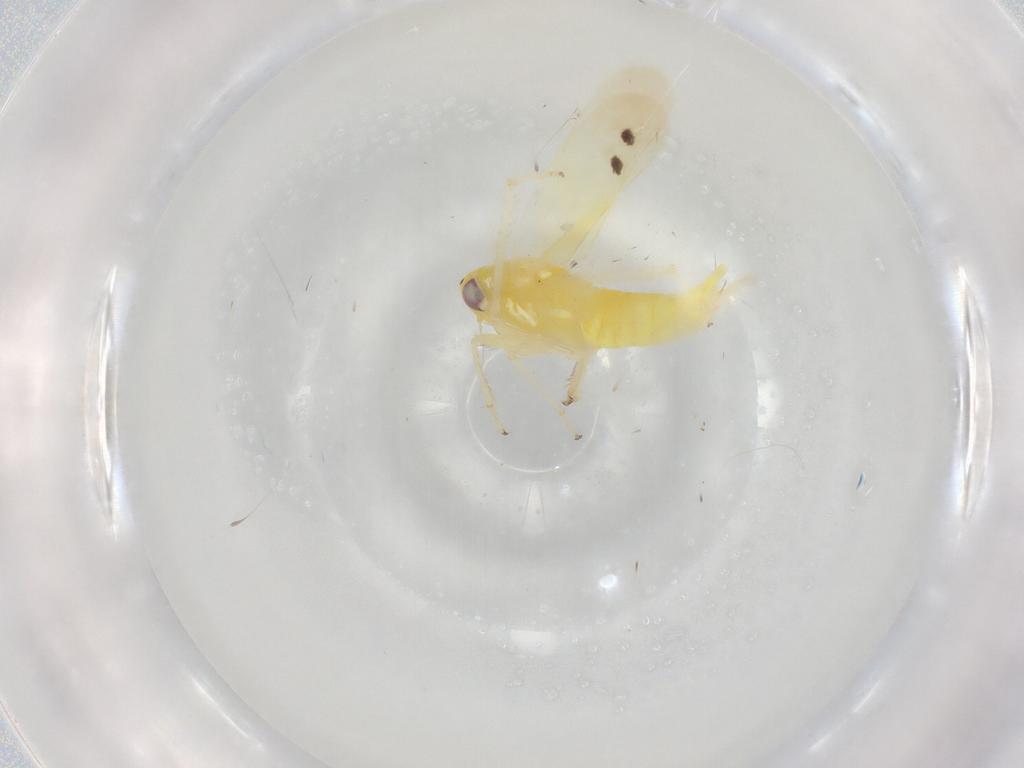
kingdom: Animalia
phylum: Arthropoda
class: Insecta
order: Hemiptera
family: Cicadellidae
